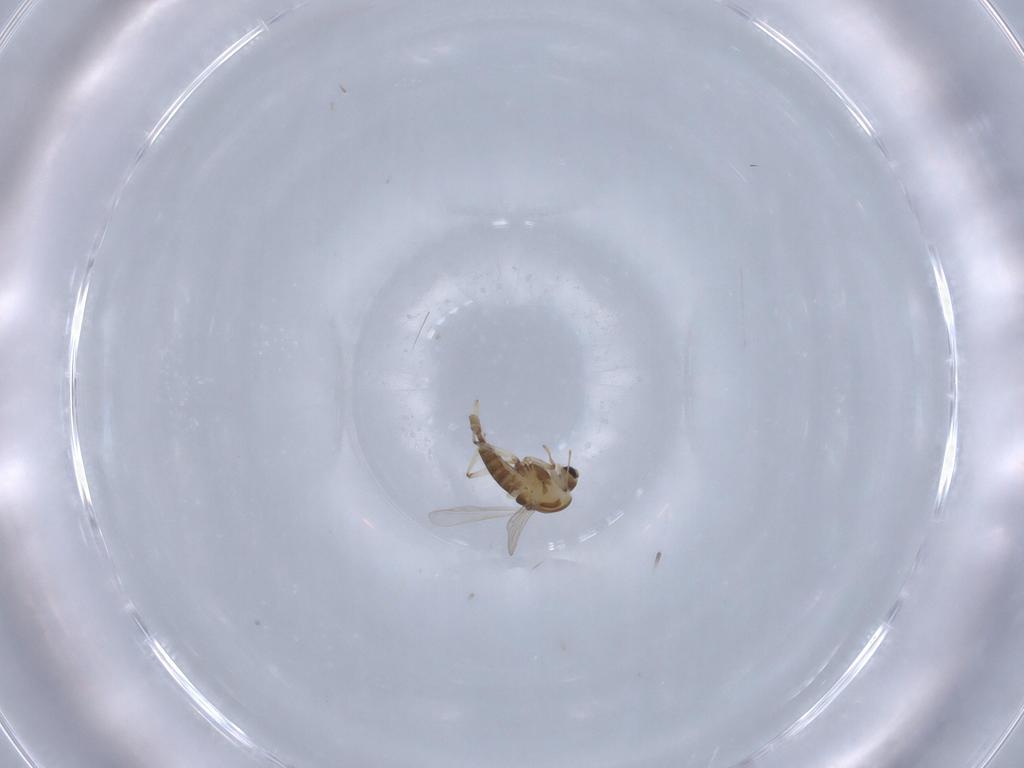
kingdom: Animalia
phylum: Arthropoda
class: Insecta
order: Diptera
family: Chironomidae
